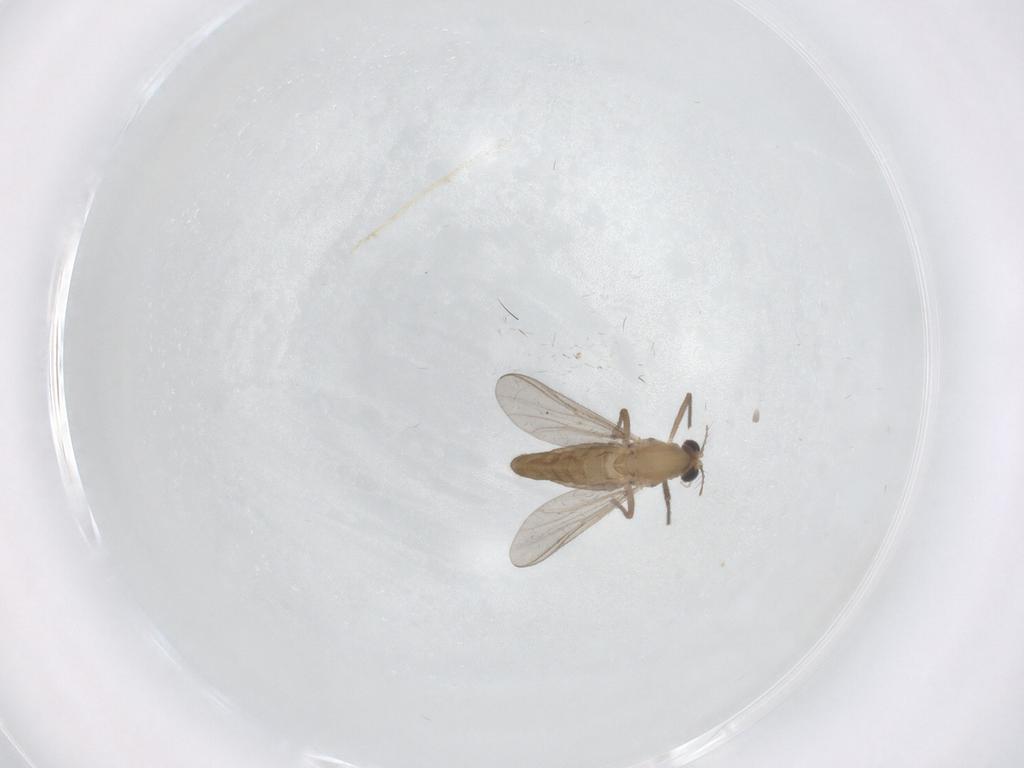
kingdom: Animalia
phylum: Arthropoda
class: Insecta
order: Diptera
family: Chironomidae
